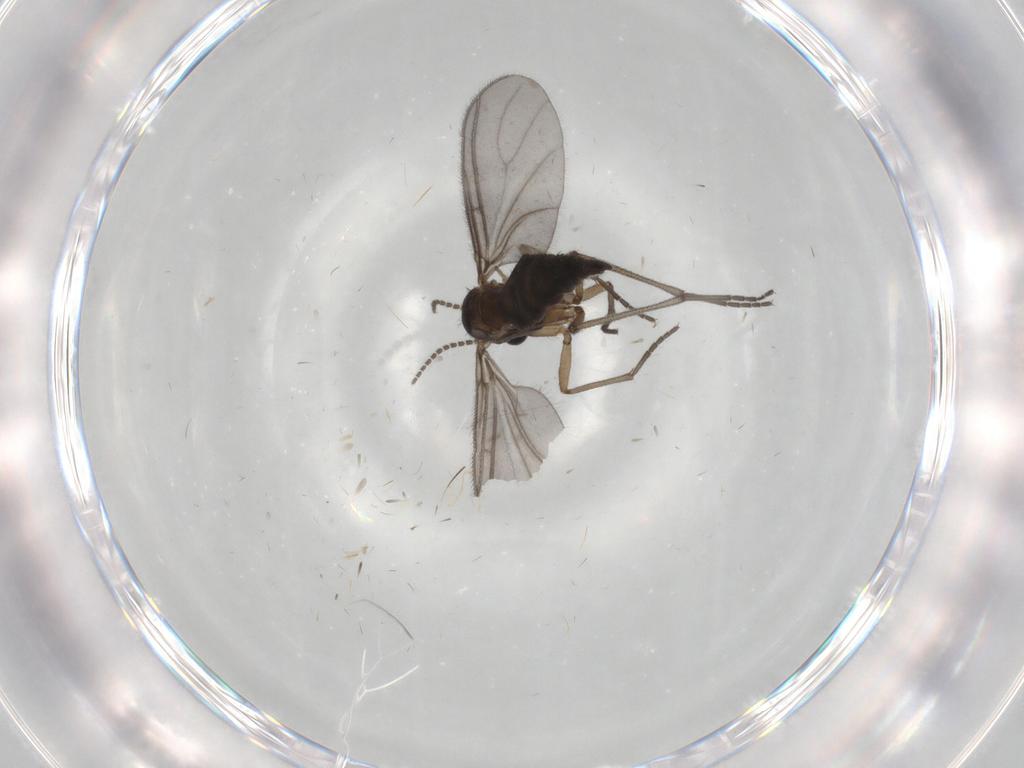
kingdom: Animalia
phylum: Arthropoda
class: Insecta
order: Diptera
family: Sciaridae
